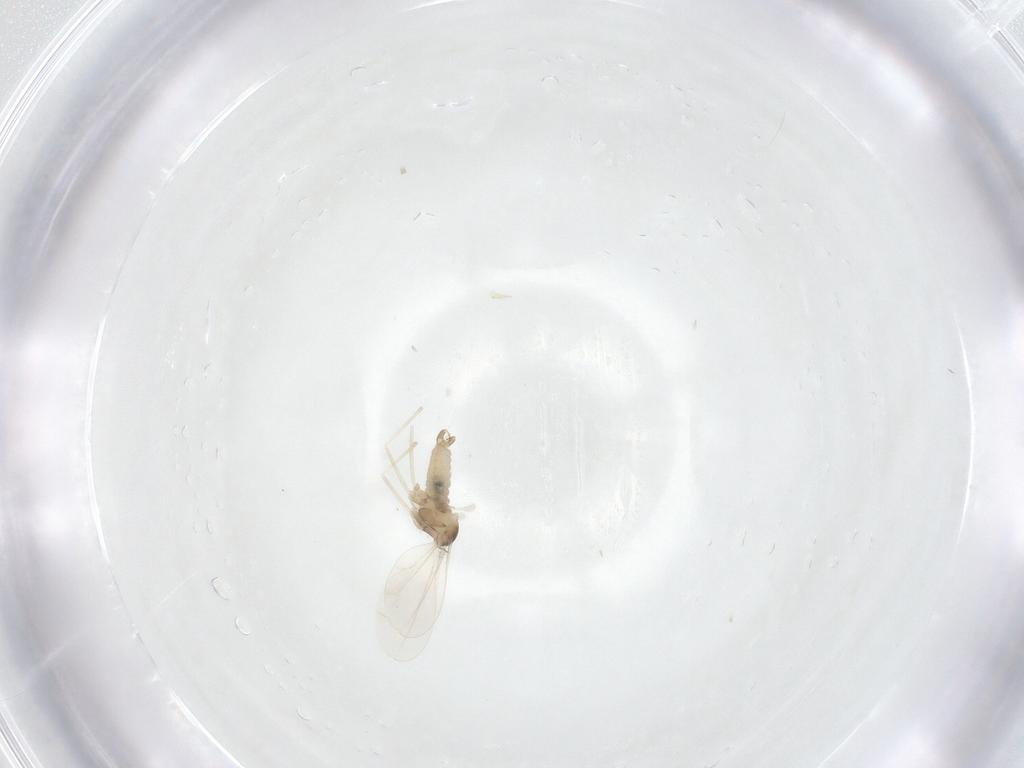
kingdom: Animalia
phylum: Arthropoda
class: Insecta
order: Diptera
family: Cecidomyiidae
